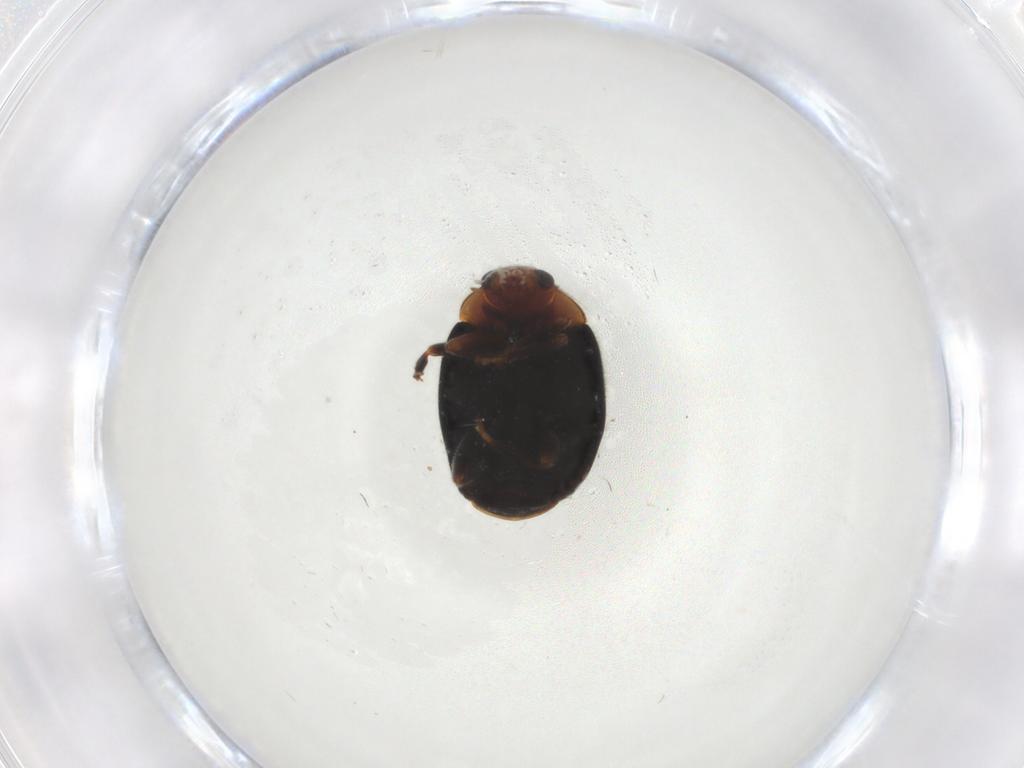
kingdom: Animalia
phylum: Arthropoda
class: Insecta
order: Coleoptera
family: Coccinellidae
